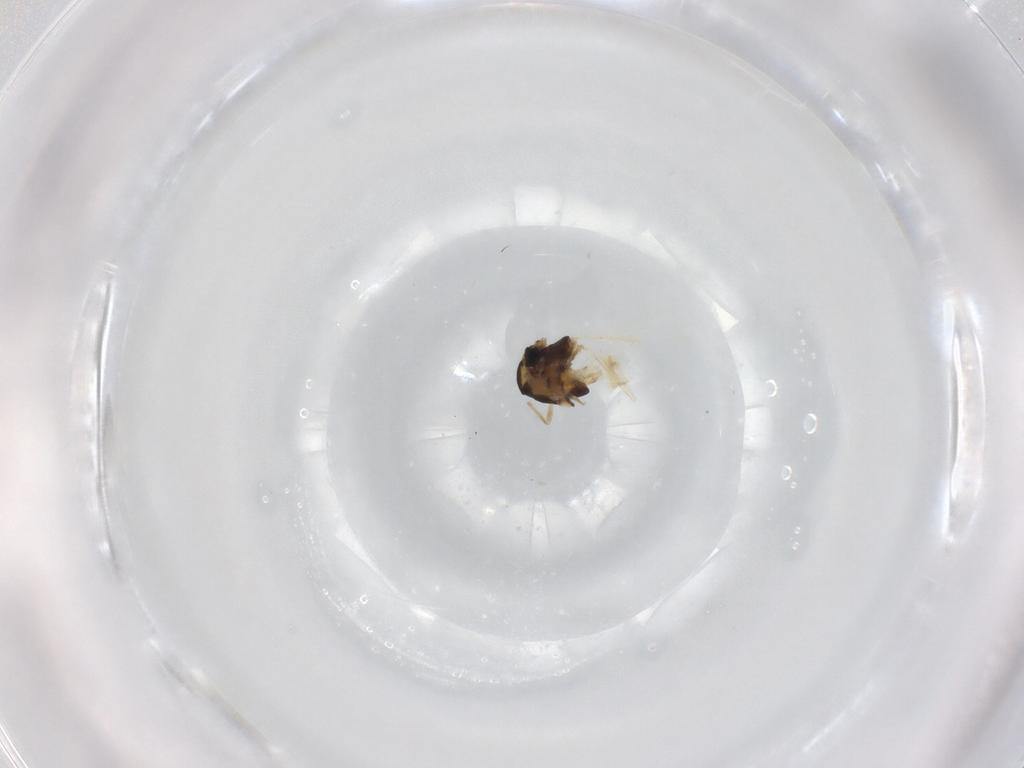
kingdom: Animalia
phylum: Arthropoda
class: Insecta
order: Diptera
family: Chironomidae
